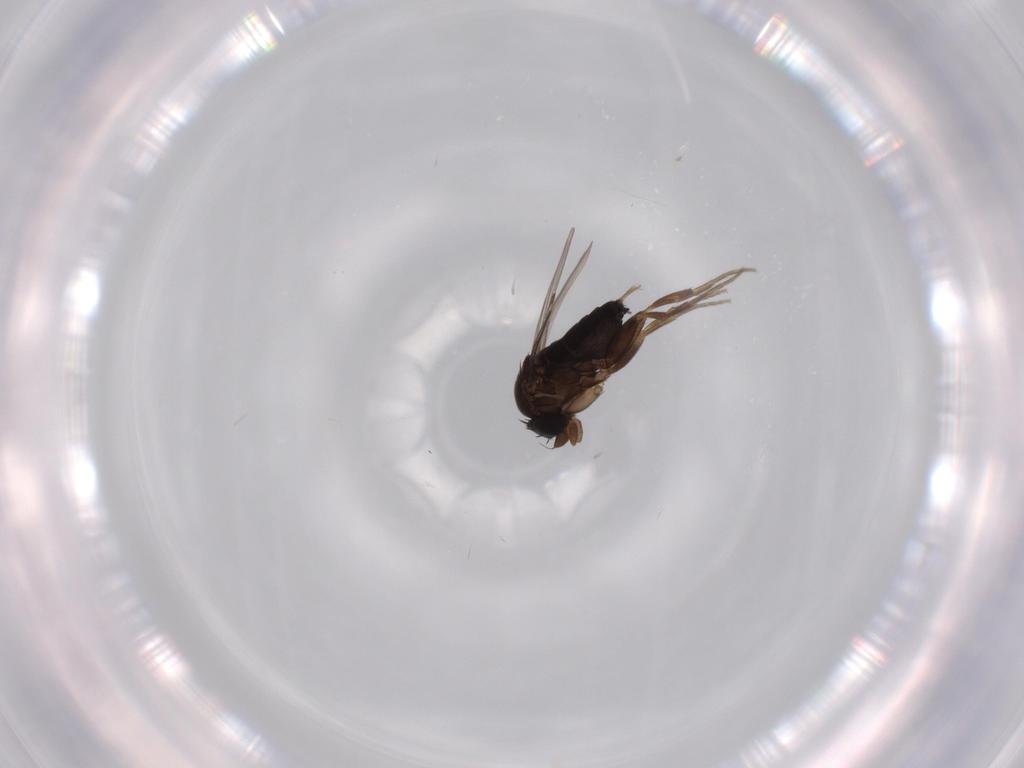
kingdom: Animalia
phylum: Arthropoda
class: Insecta
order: Diptera
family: Phoridae
